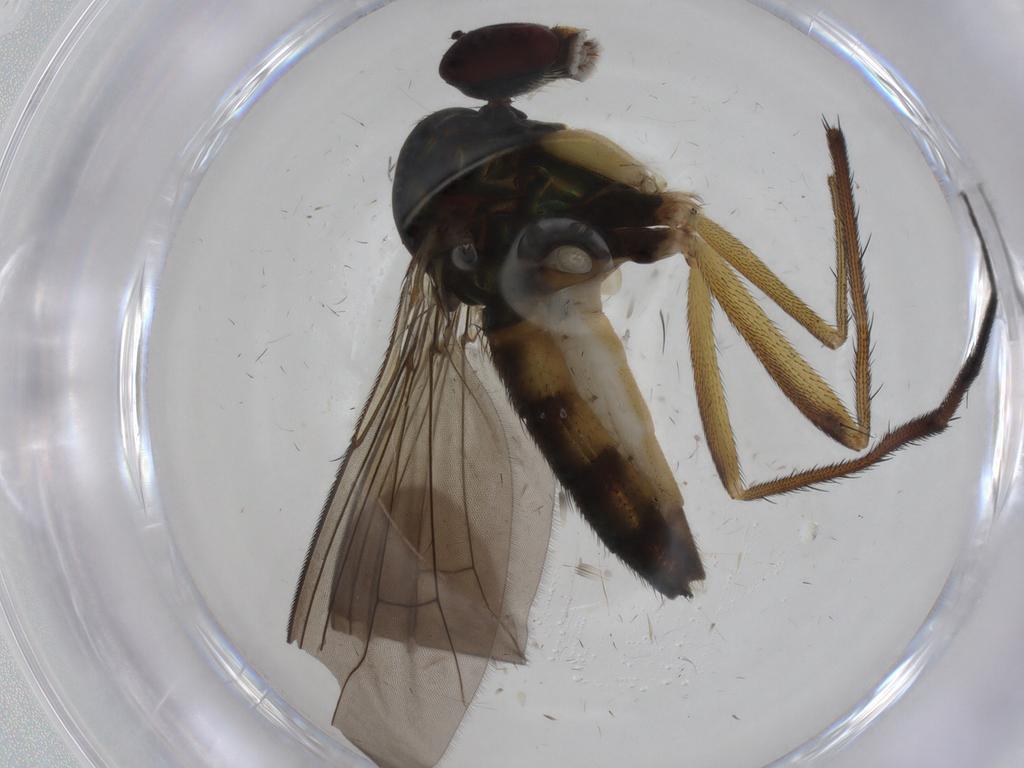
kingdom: Animalia
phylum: Arthropoda
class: Insecta
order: Diptera
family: Dolichopodidae
